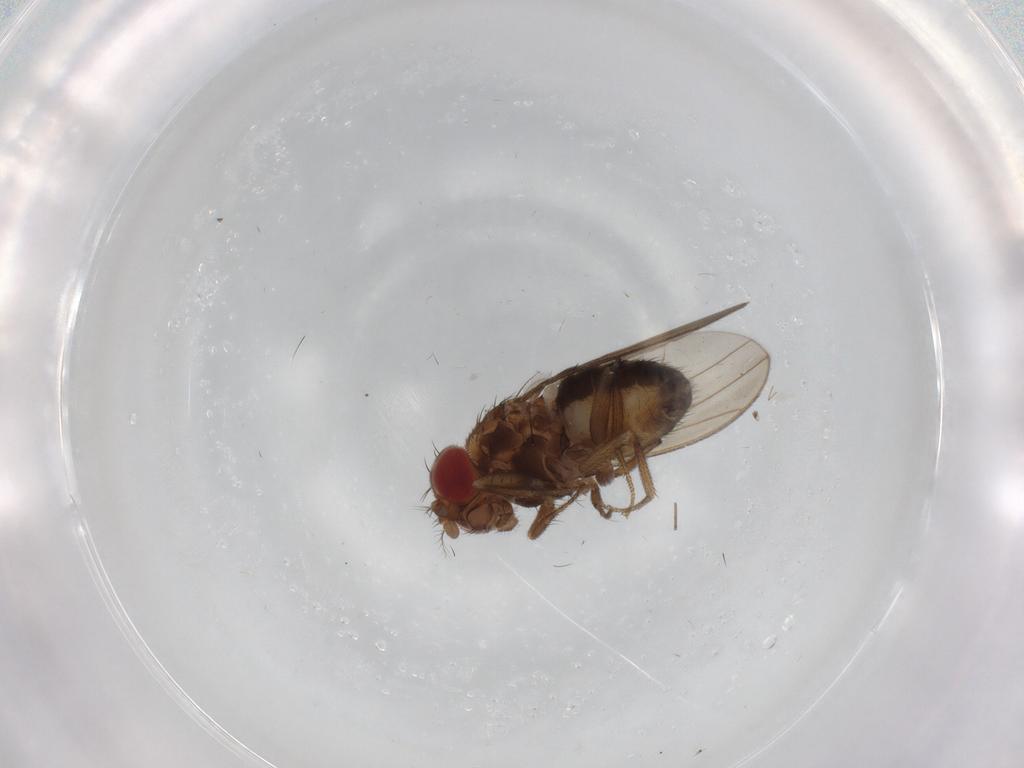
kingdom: Animalia
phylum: Arthropoda
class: Insecta
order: Diptera
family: Drosophilidae
